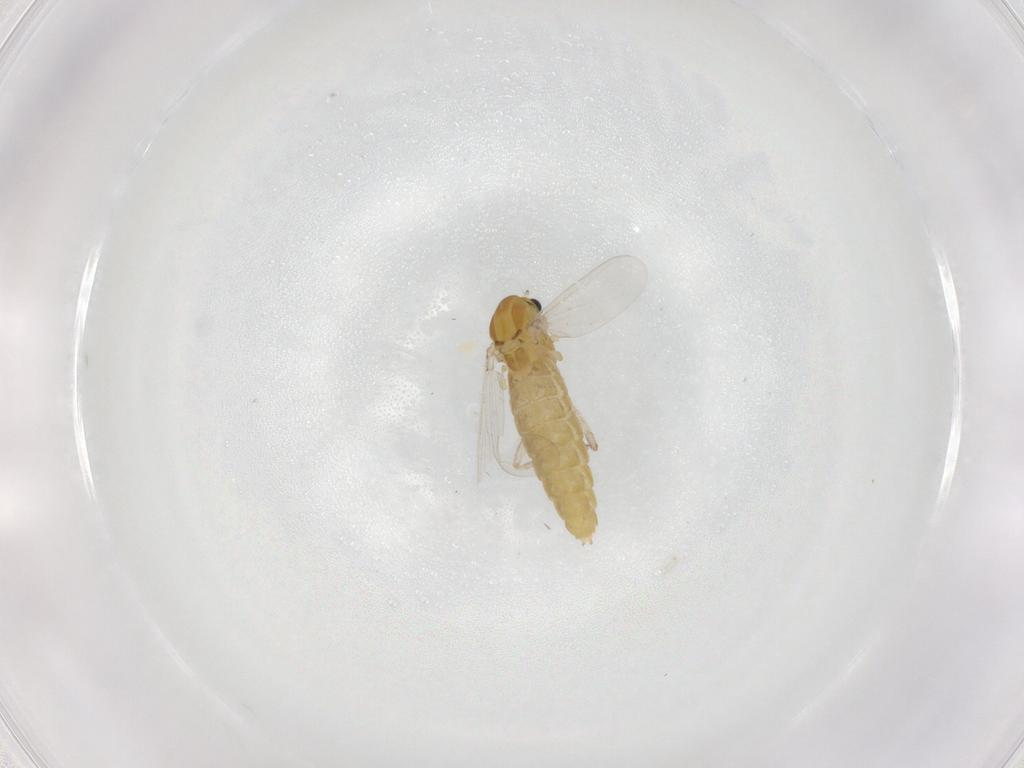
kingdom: Animalia
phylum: Arthropoda
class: Insecta
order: Diptera
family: Chironomidae
